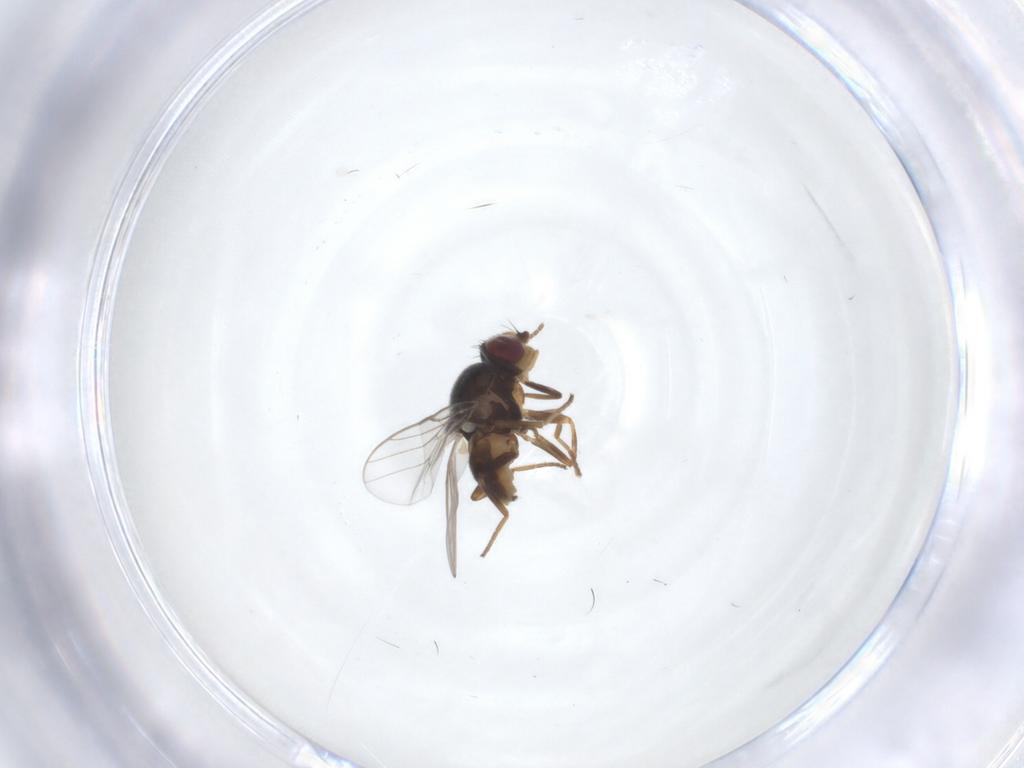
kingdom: Animalia
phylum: Arthropoda
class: Insecta
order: Diptera
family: Chloropidae
